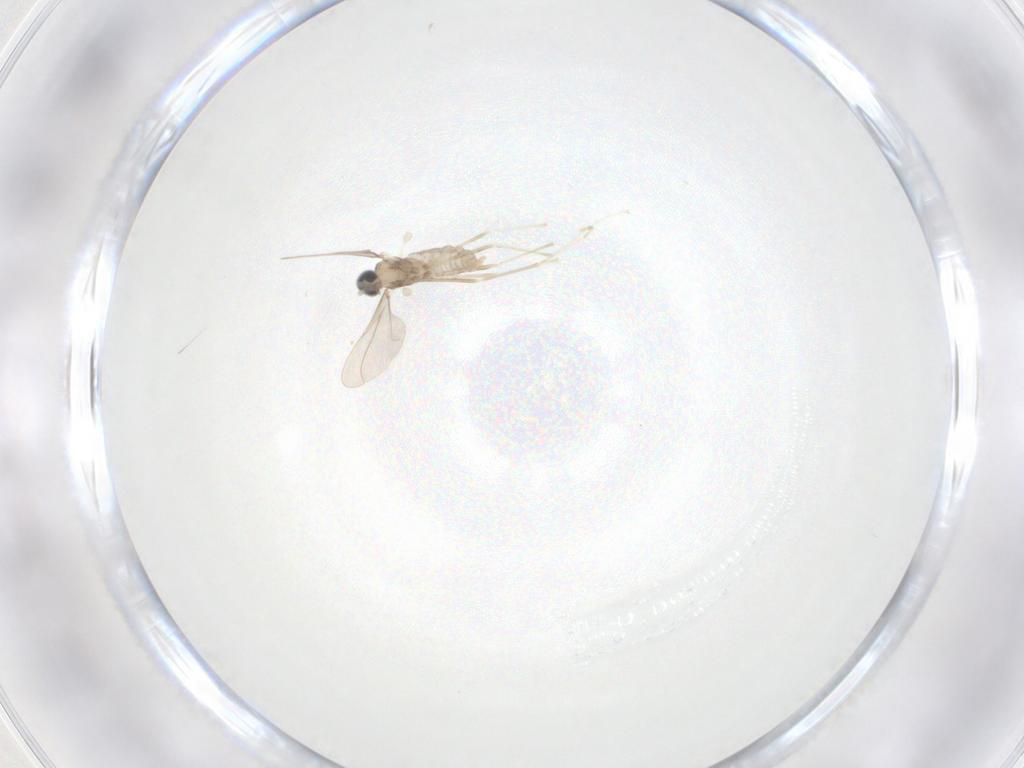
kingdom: Animalia
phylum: Arthropoda
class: Insecta
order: Diptera
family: Cecidomyiidae
